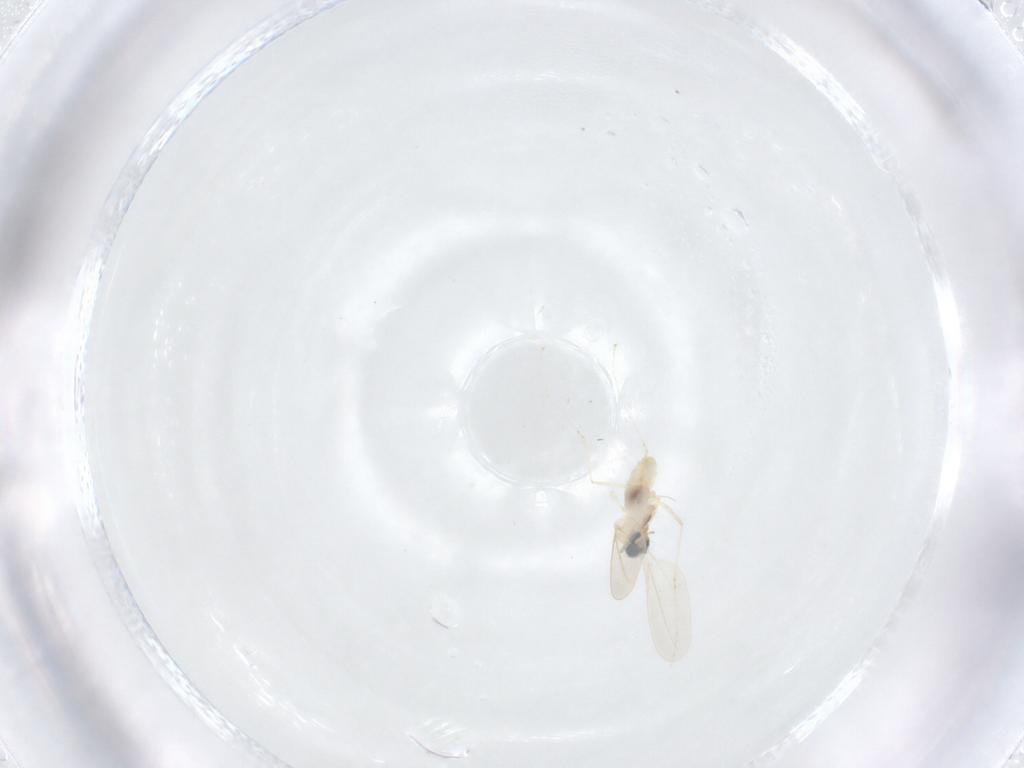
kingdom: Animalia
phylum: Arthropoda
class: Insecta
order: Diptera
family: Cecidomyiidae
